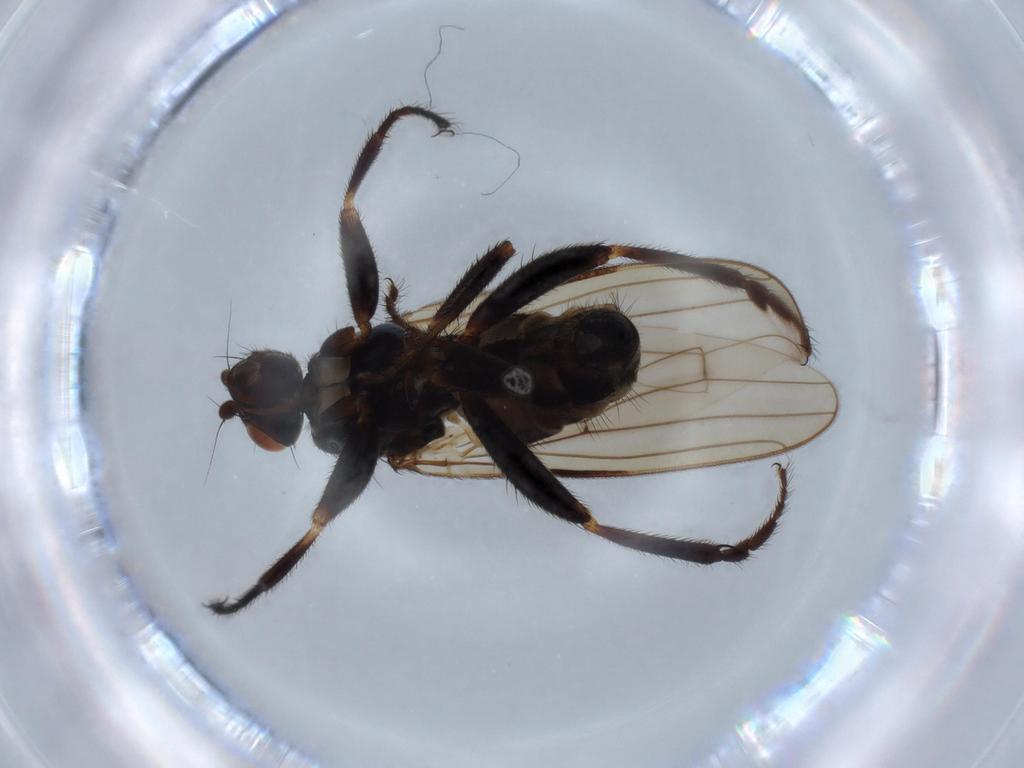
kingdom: Animalia
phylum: Arthropoda
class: Insecta
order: Diptera
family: Sphaeroceridae
